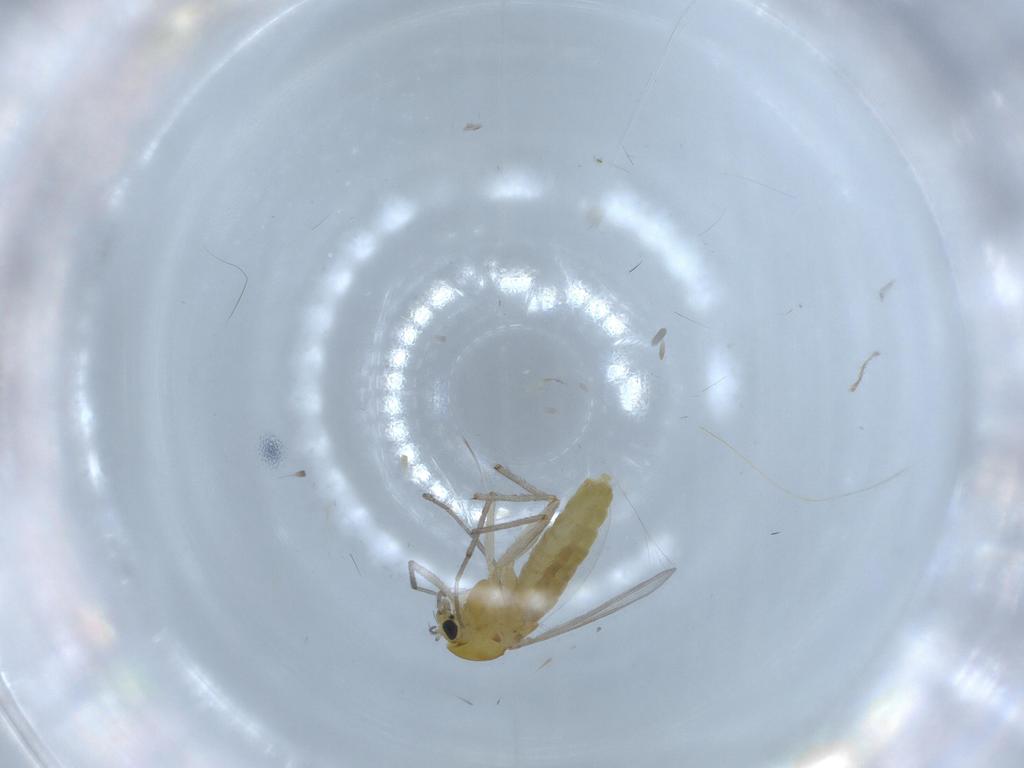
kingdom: Animalia
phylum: Arthropoda
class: Insecta
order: Diptera
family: Chironomidae
